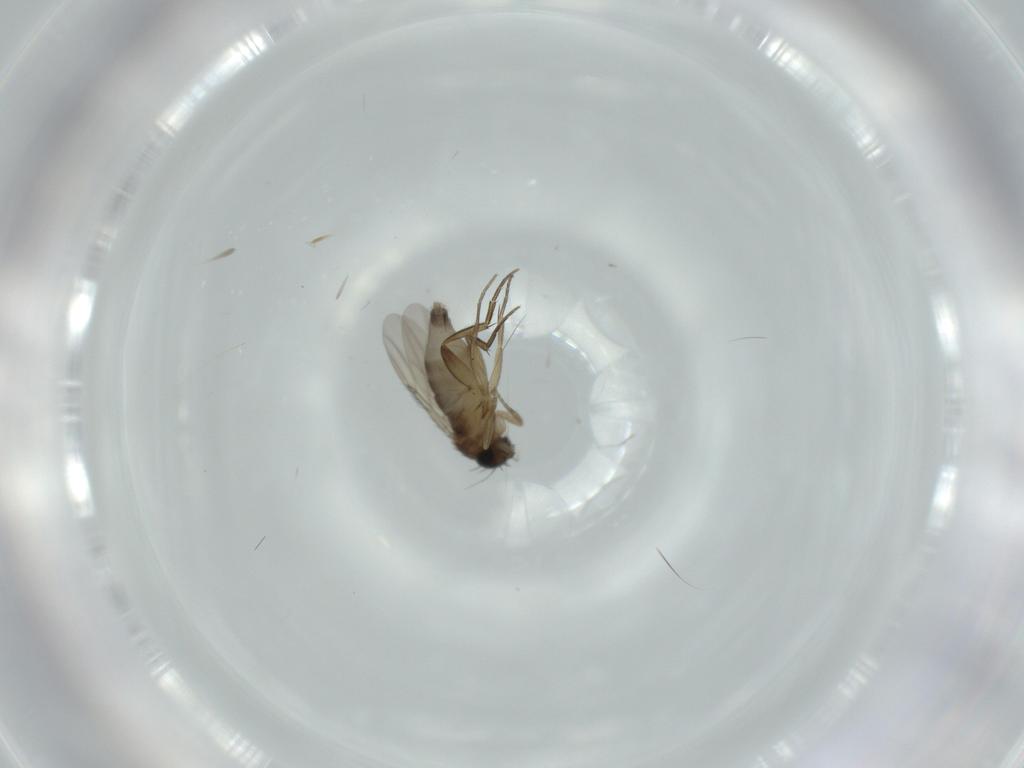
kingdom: Animalia
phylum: Arthropoda
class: Insecta
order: Diptera
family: Phoridae
